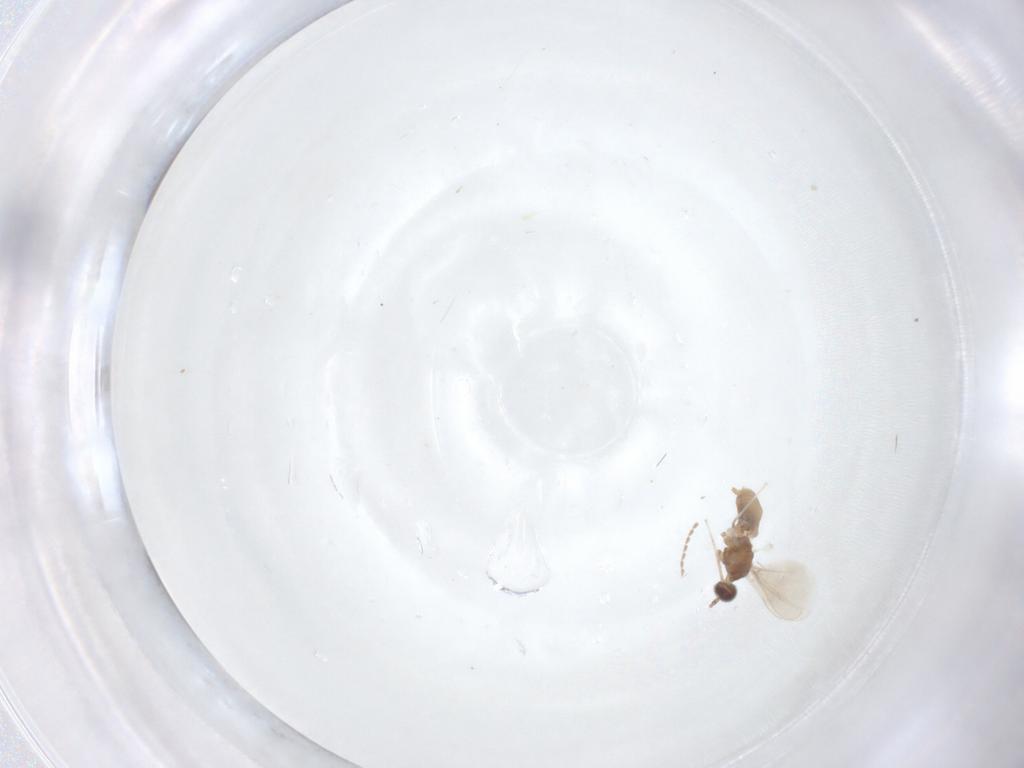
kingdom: Animalia
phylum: Arthropoda
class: Insecta
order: Diptera
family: Cecidomyiidae
